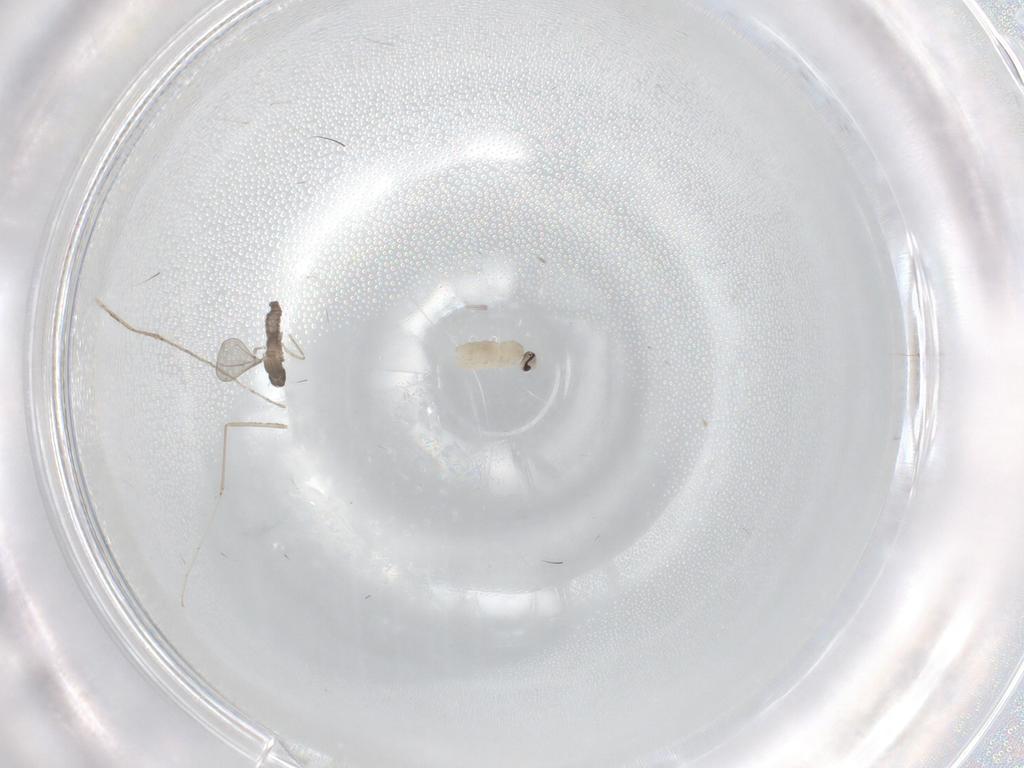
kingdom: Animalia
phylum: Arthropoda
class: Insecta
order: Diptera
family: Cecidomyiidae
